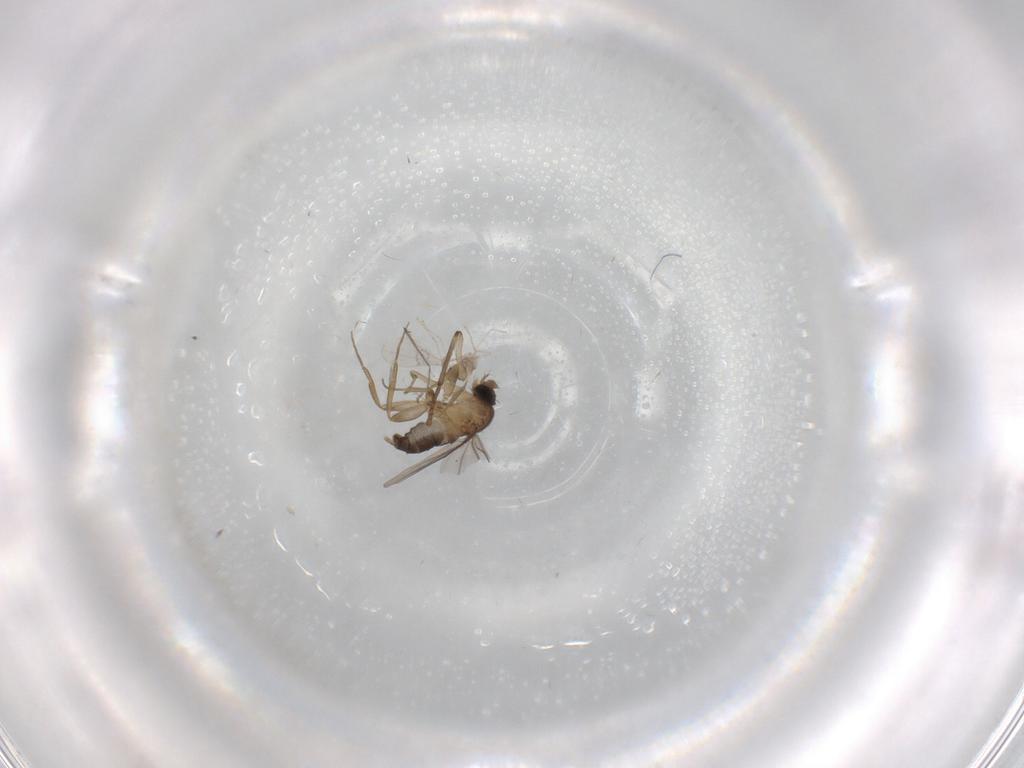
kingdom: Animalia
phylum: Arthropoda
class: Insecta
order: Diptera
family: Phoridae
